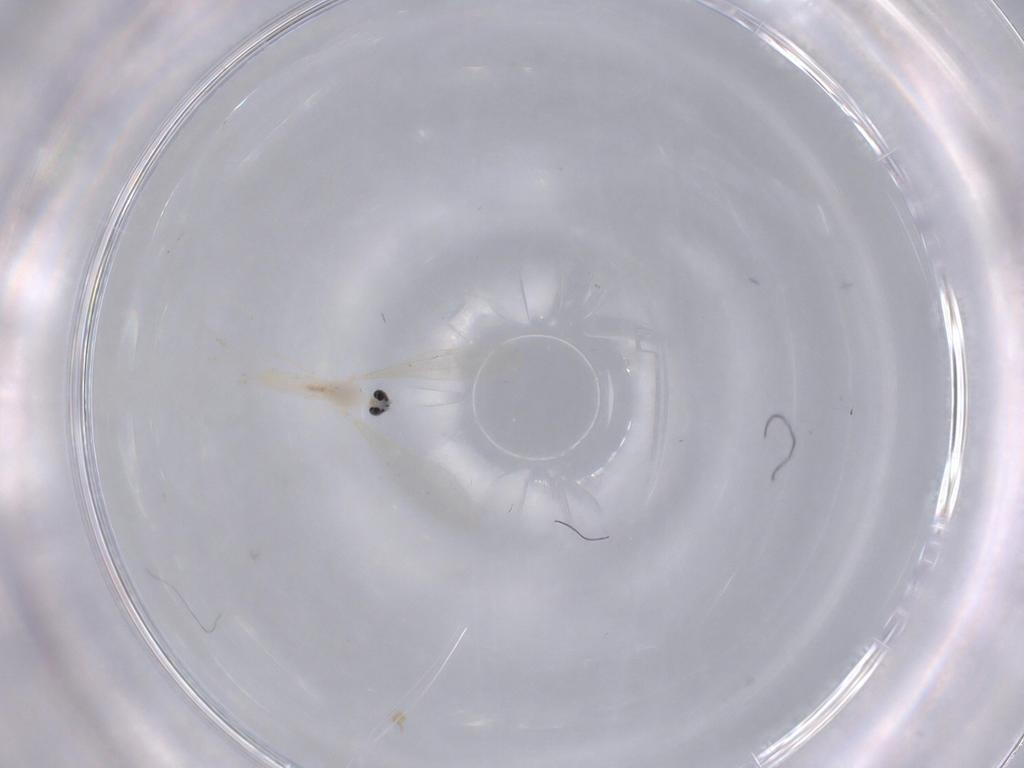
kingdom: Animalia
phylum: Arthropoda
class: Insecta
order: Diptera
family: Cecidomyiidae
